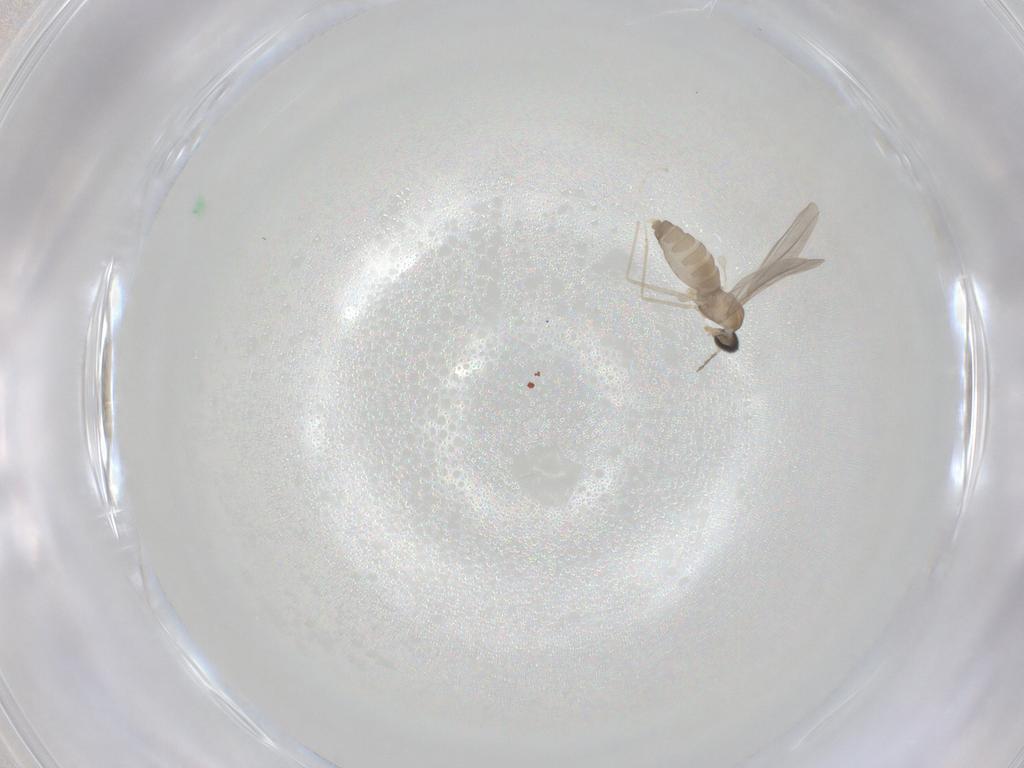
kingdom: Animalia
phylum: Arthropoda
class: Insecta
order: Diptera
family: Cecidomyiidae
